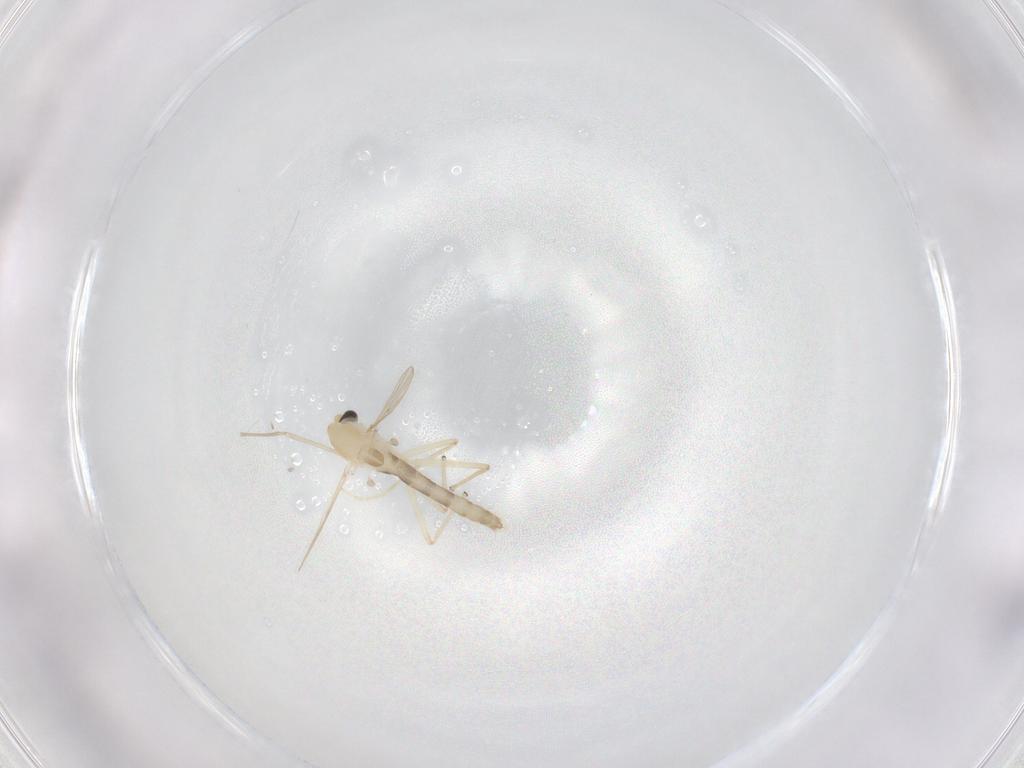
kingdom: Animalia
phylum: Arthropoda
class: Insecta
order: Diptera
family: Chironomidae
